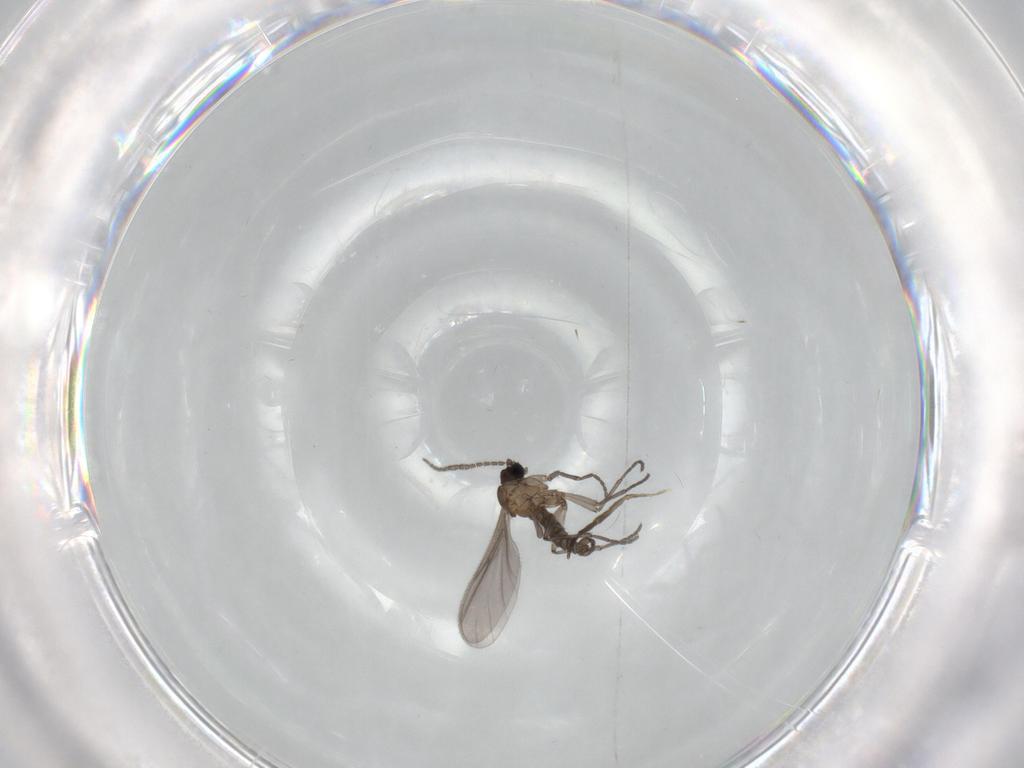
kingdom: Animalia
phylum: Arthropoda
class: Insecta
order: Diptera
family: Sciaridae
